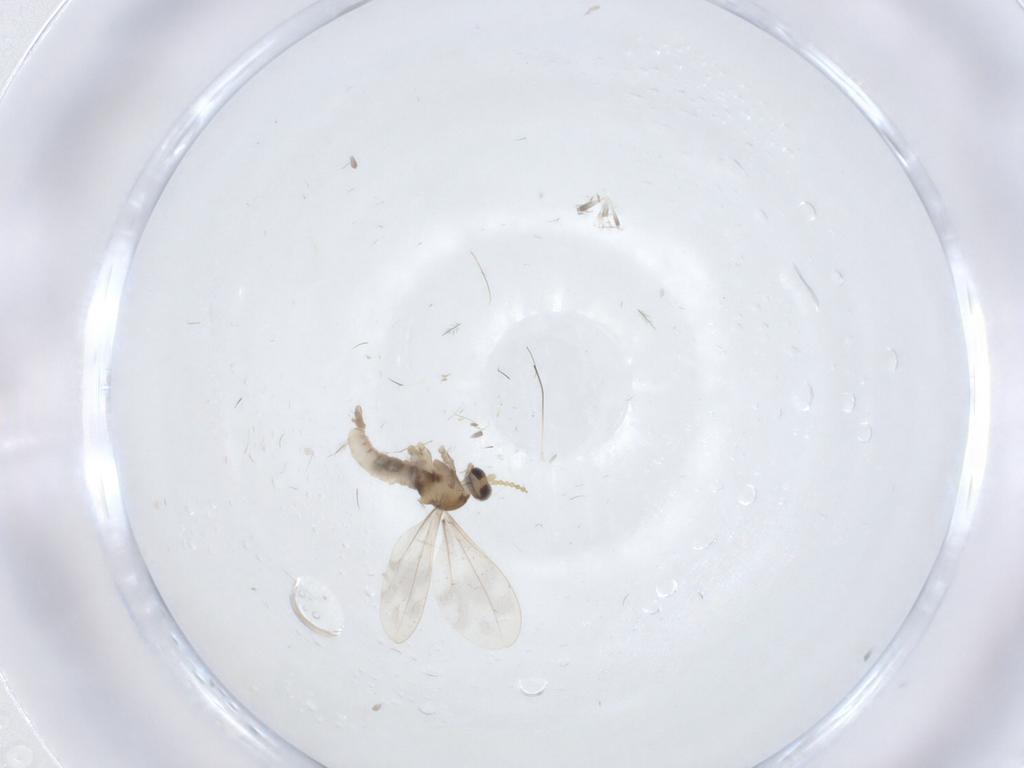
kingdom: Animalia
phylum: Arthropoda
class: Insecta
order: Diptera
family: Cecidomyiidae
